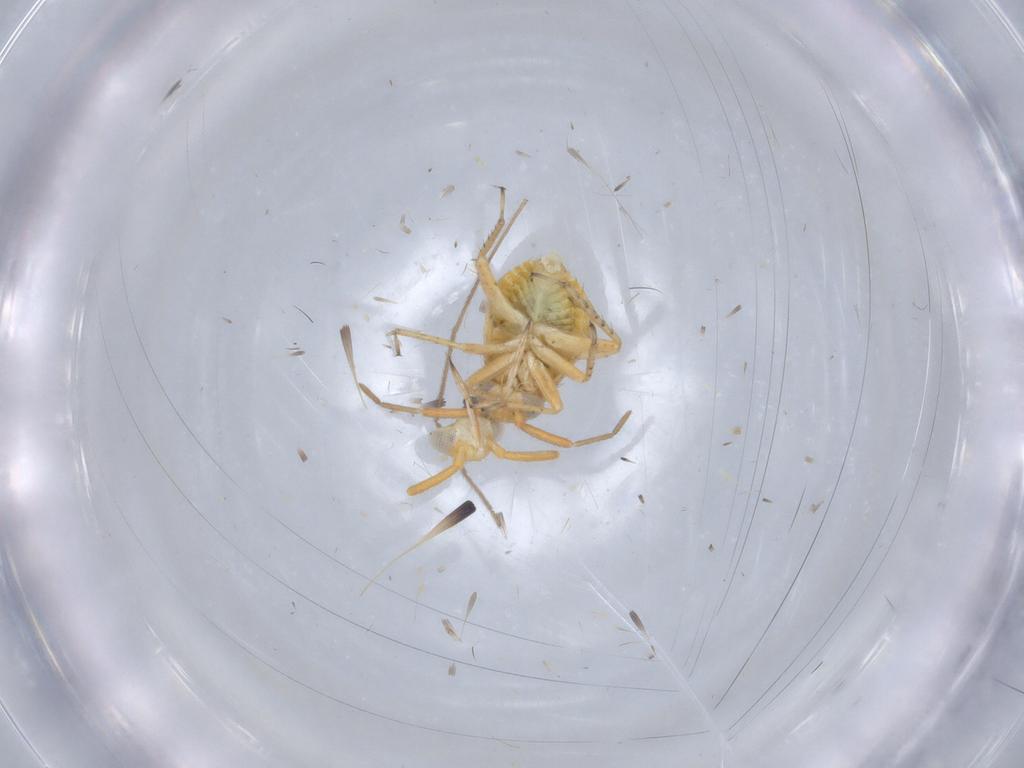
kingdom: Animalia
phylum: Arthropoda
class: Insecta
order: Hemiptera
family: Miridae
